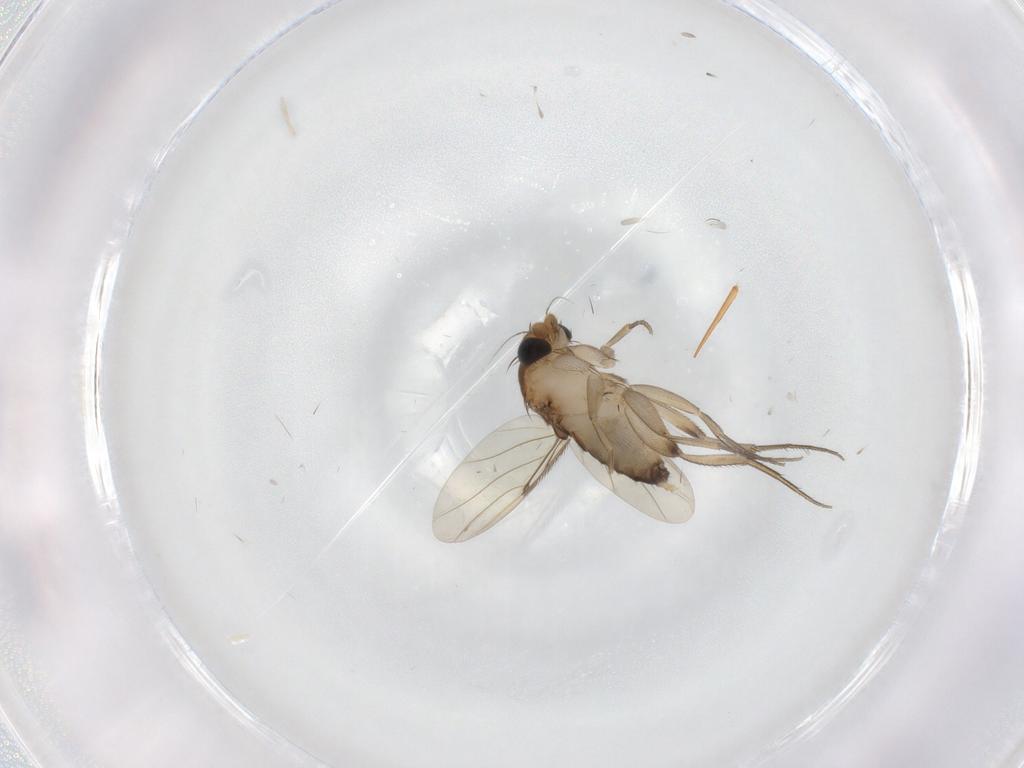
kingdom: Animalia
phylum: Arthropoda
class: Insecta
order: Diptera
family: Phoridae
